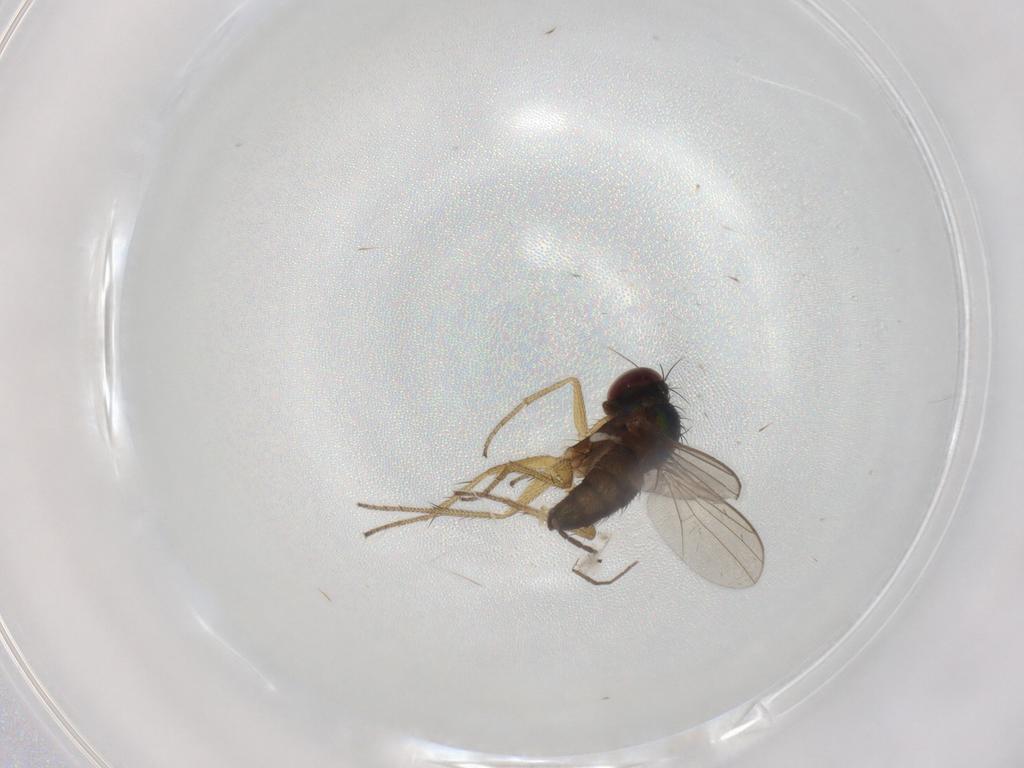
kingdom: Animalia
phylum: Arthropoda
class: Insecta
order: Diptera
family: Dolichopodidae
